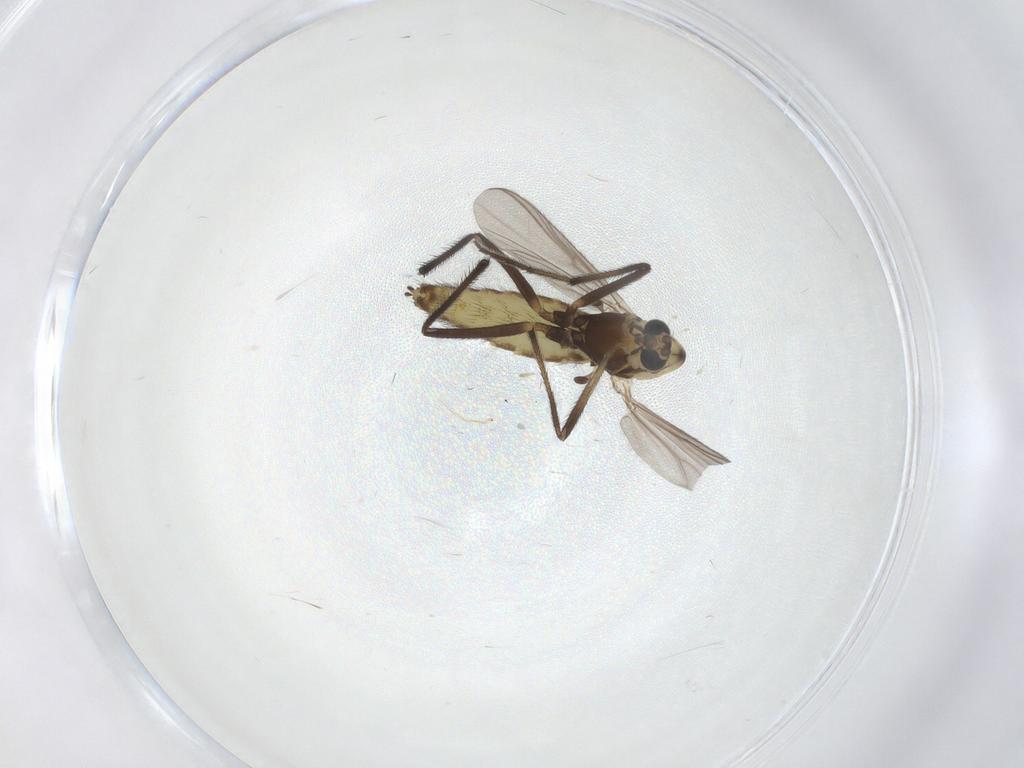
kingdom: Animalia
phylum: Arthropoda
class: Insecta
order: Diptera
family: Chironomidae
